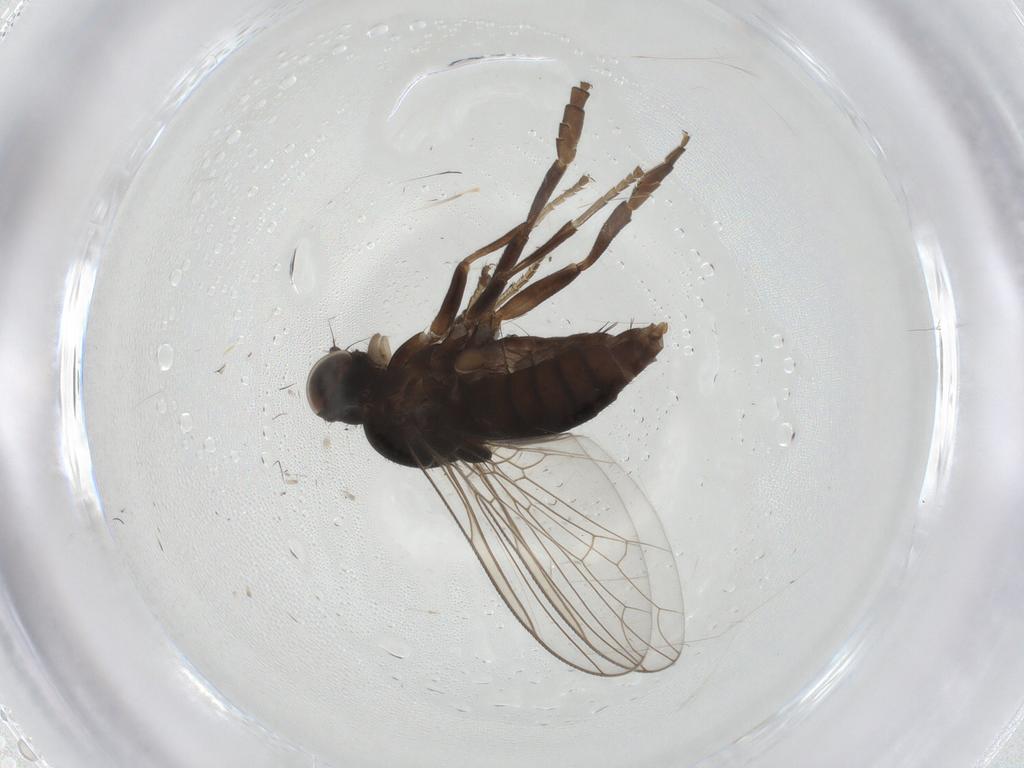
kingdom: Animalia
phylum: Arthropoda
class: Insecta
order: Diptera
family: Platypezidae
